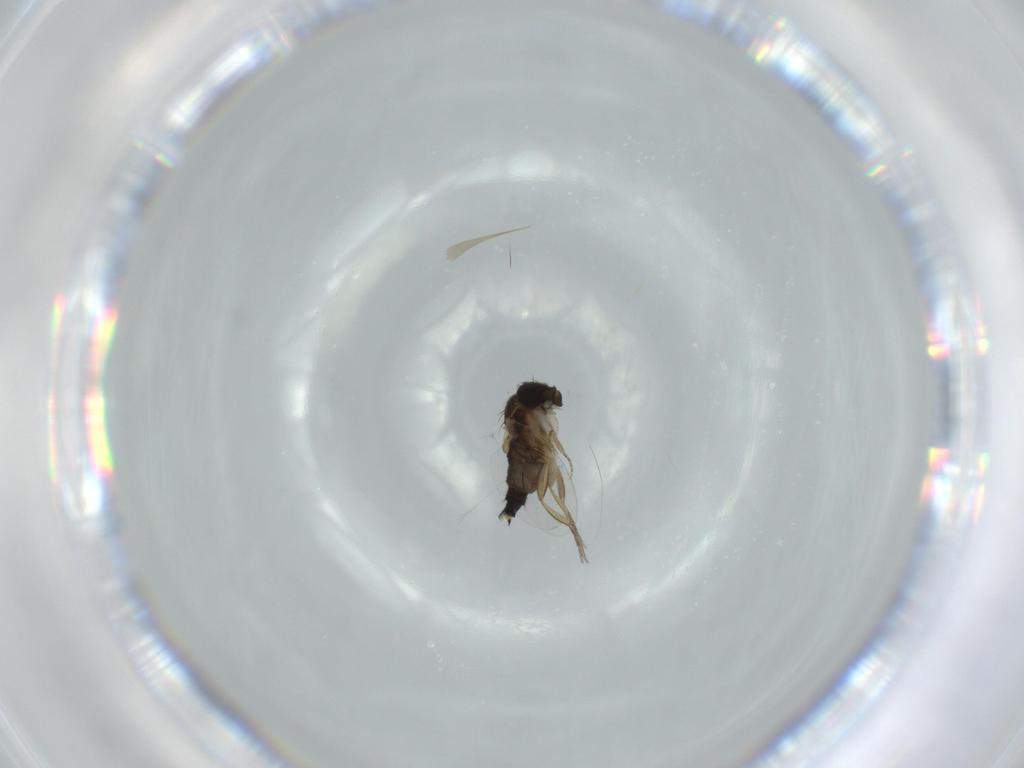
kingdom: Animalia
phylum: Arthropoda
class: Insecta
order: Diptera
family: Phoridae
